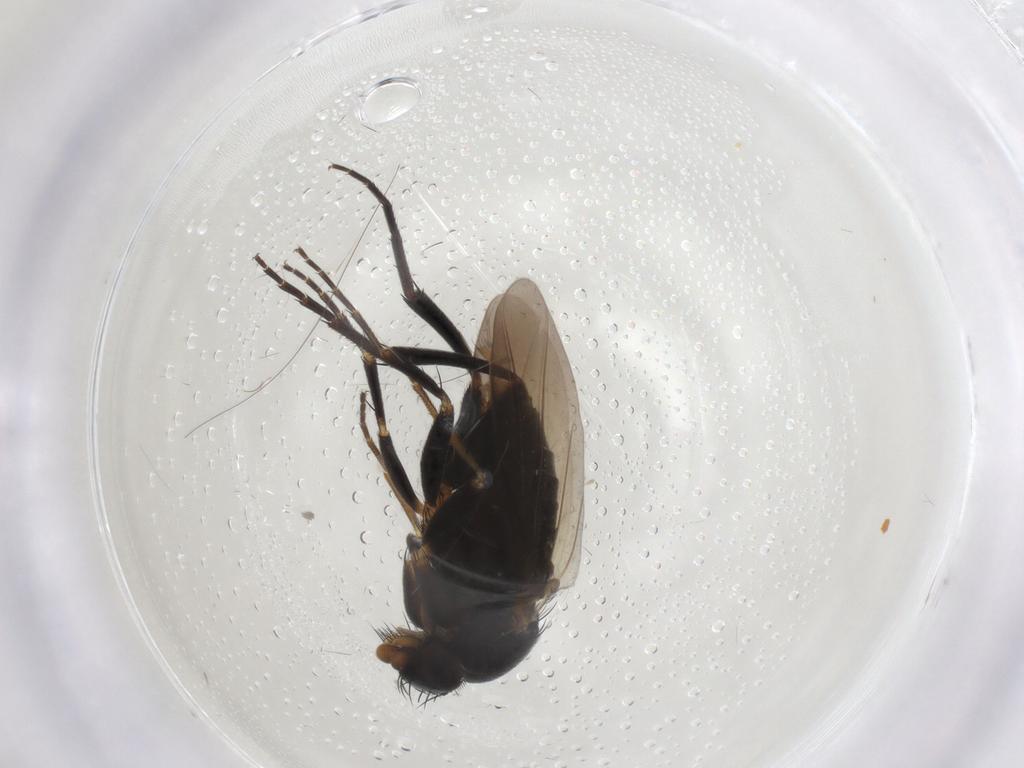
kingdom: Animalia
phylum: Arthropoda
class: Insecta
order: Diptera
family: Phoridae
